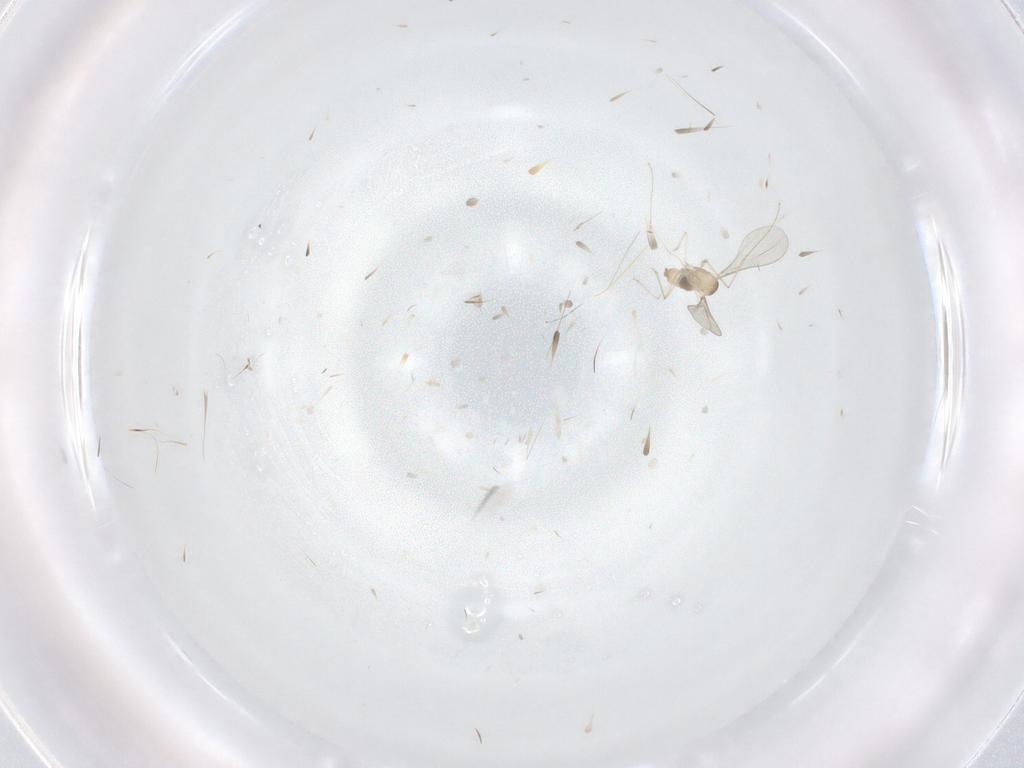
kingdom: Animalia
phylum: Arthropoda
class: Insecta
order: Diptera
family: Cecidomyiidae
